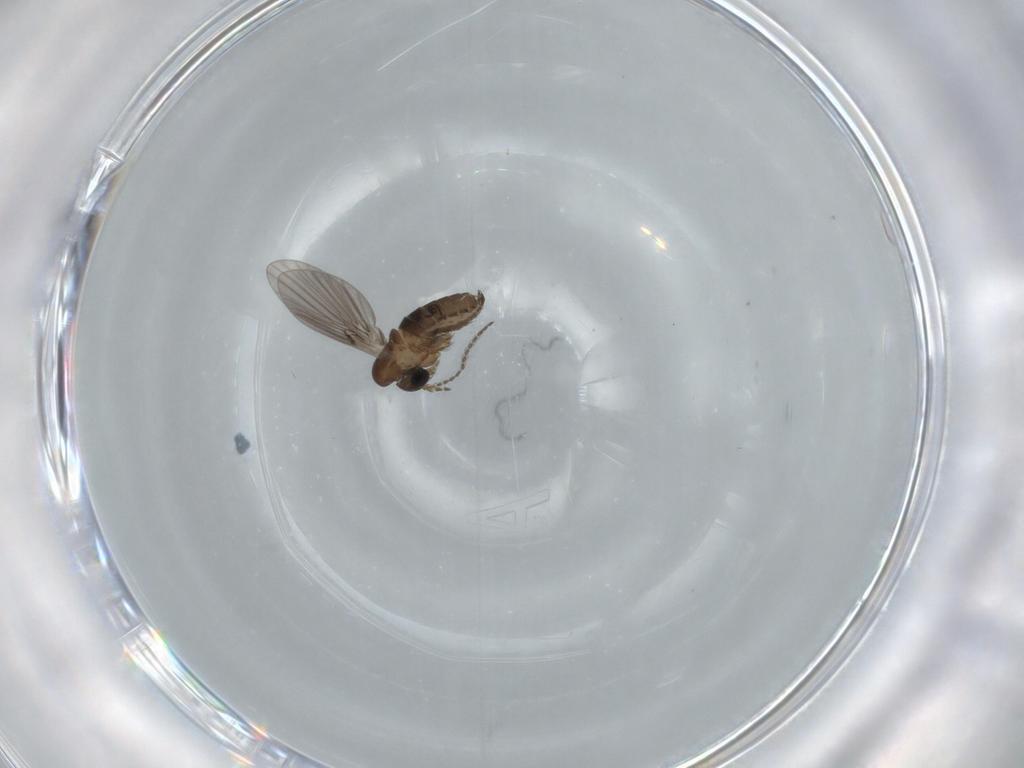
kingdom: Animalia
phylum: Arthropoda
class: Insecta
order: Diptera
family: Psychodidae
